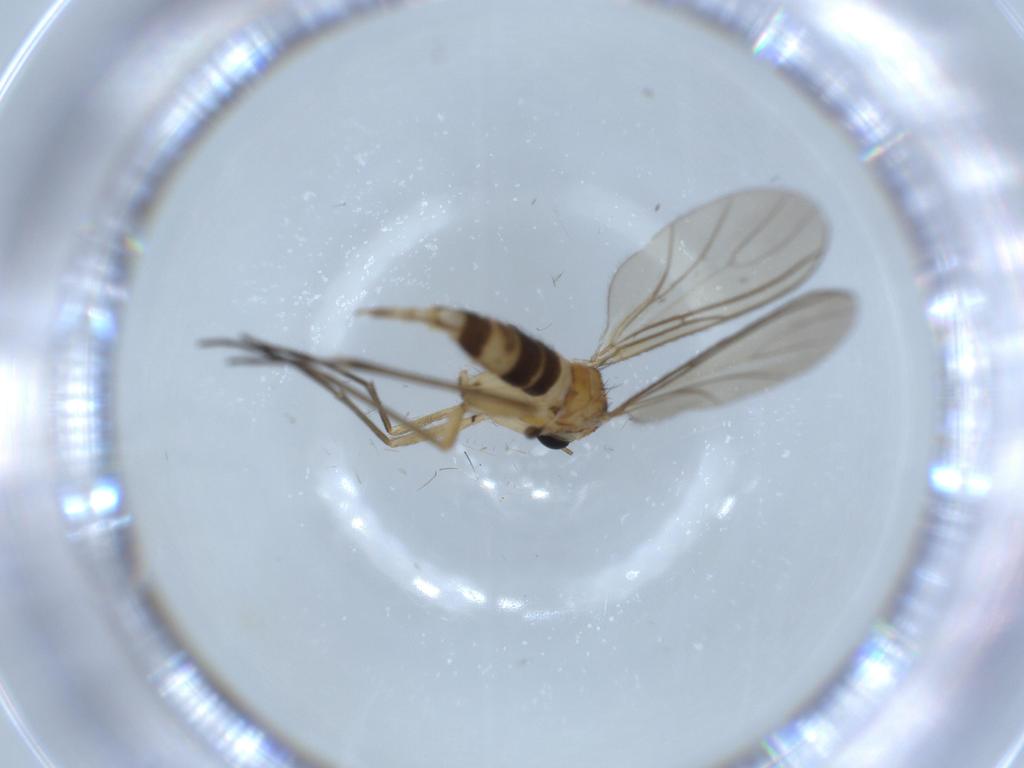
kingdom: Animalia
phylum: Arthropoda
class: Insecta
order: Diptera
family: Sciaridae
